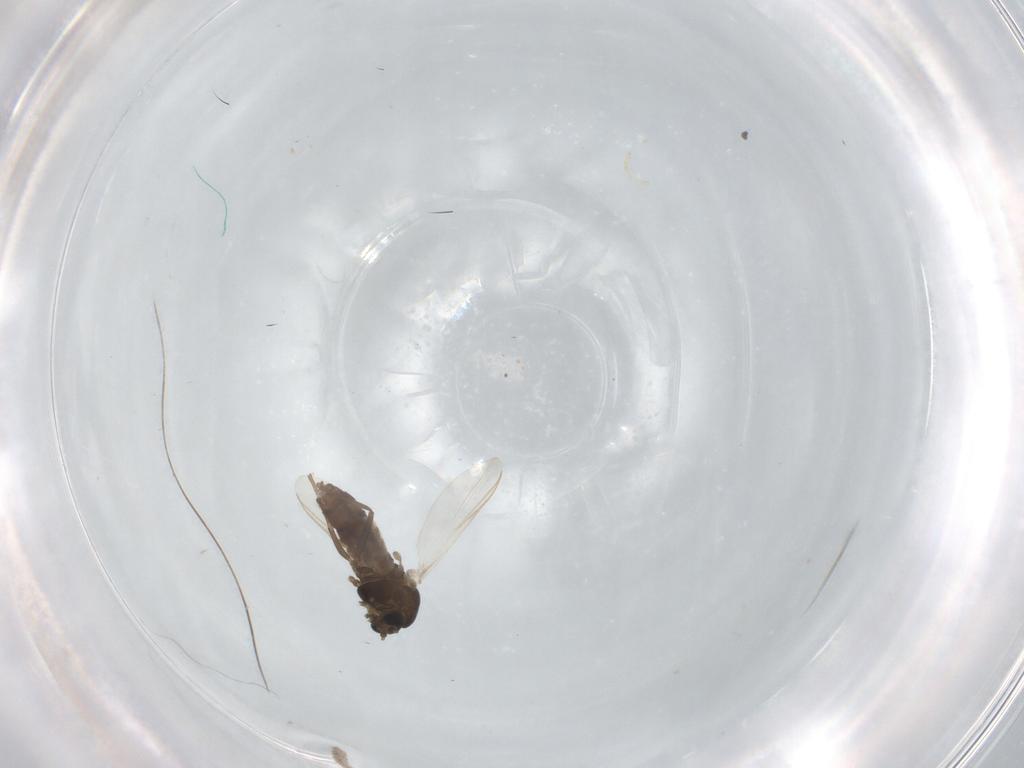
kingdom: Animalia
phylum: Arthropoda
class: Insecta
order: Diptera
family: Chironomidae
